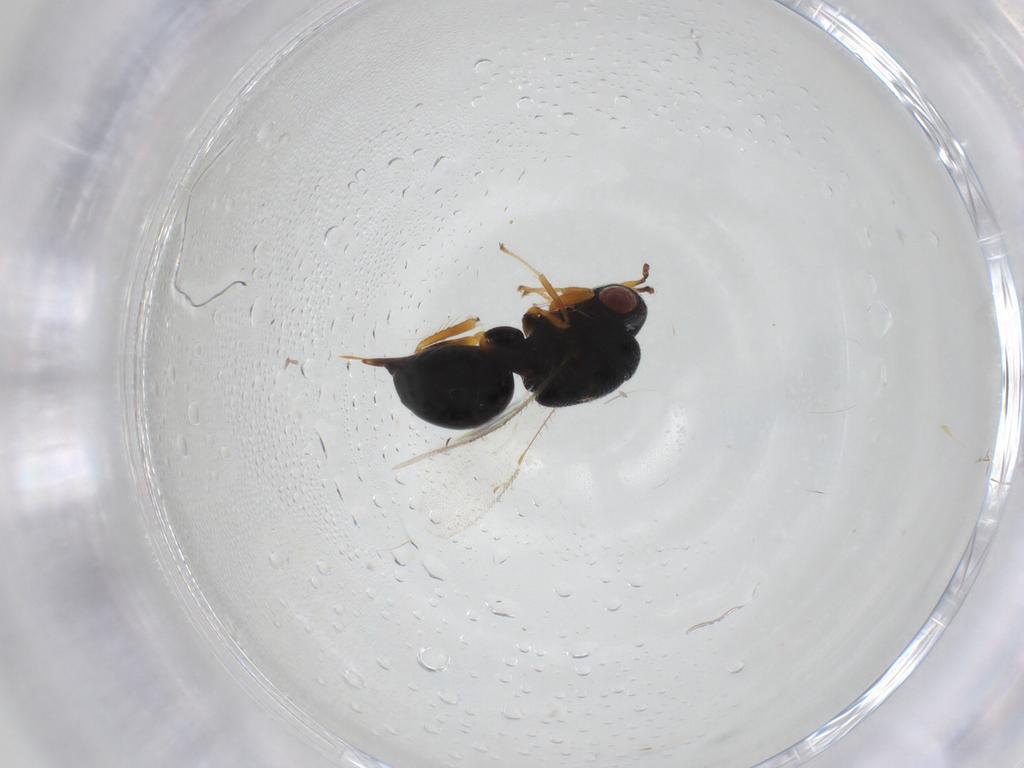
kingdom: Animalia
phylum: Arthropoda
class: Insecta
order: Hymenoptera
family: Eurytomidae
